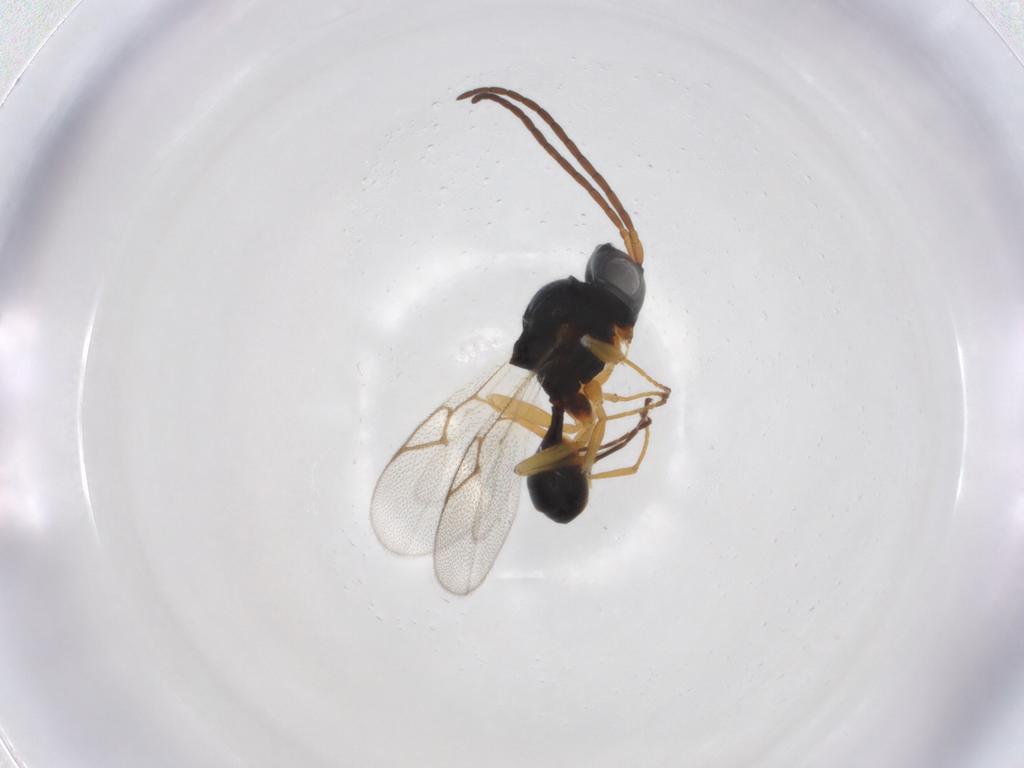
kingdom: Animalia
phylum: Arthropoda
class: Insecta
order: Hymenoptera
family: Figitidae
